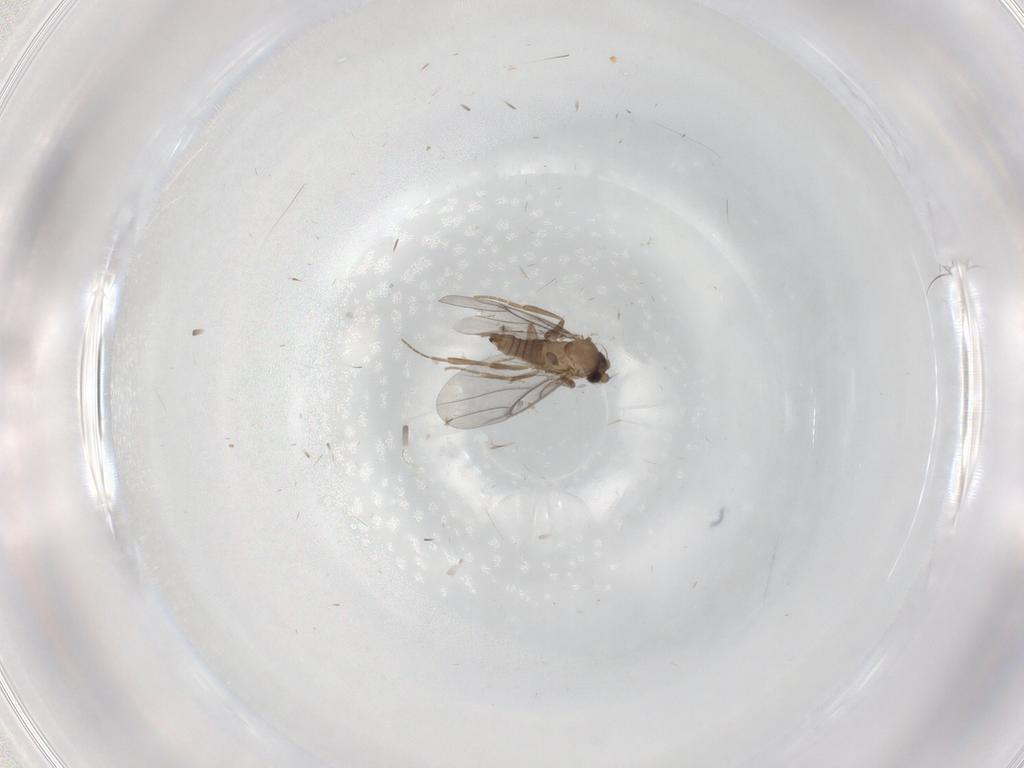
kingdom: Animalia
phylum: Arthropoda
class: Insecta
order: Diptera
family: Cecidomyiidae
